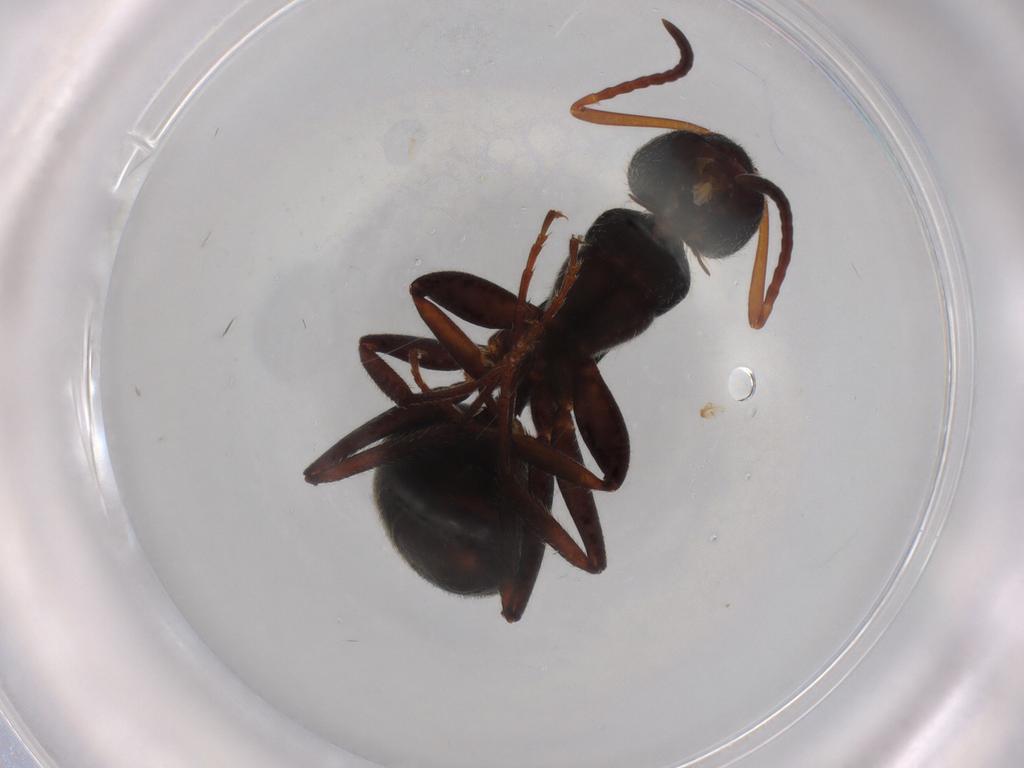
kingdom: Animalia
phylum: Arthropoda
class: Insecta
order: Hymenoptera
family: Formicidae
